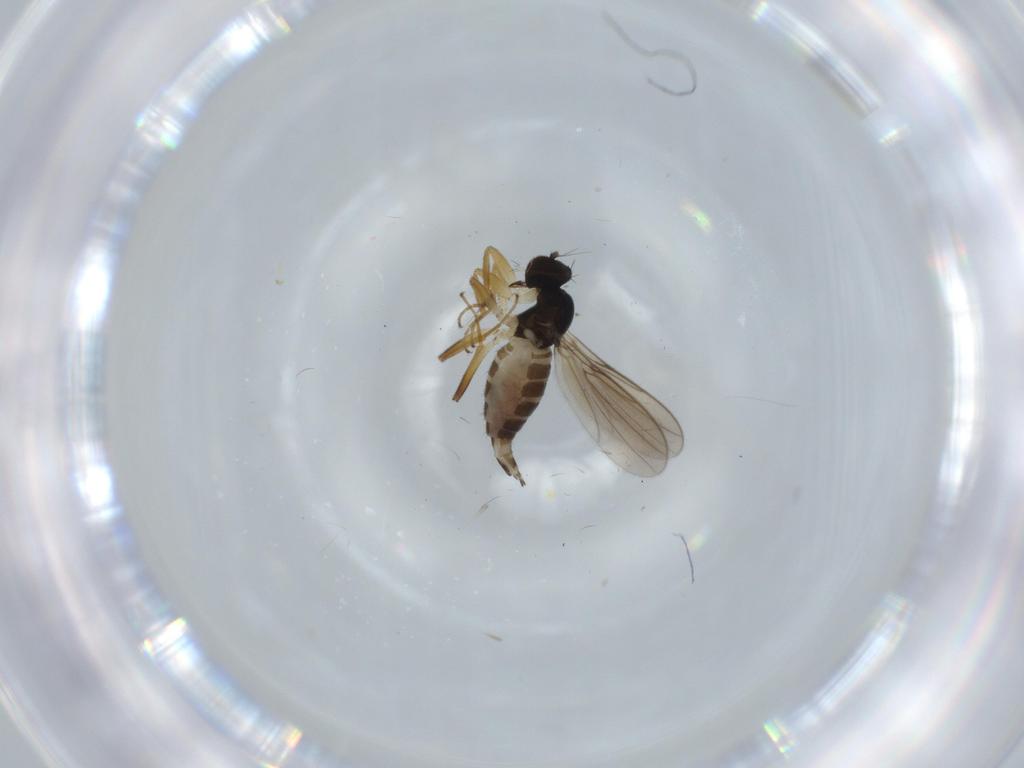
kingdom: Animalia
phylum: Arthropoda
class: Insecta
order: Diptera
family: Hybotidae
